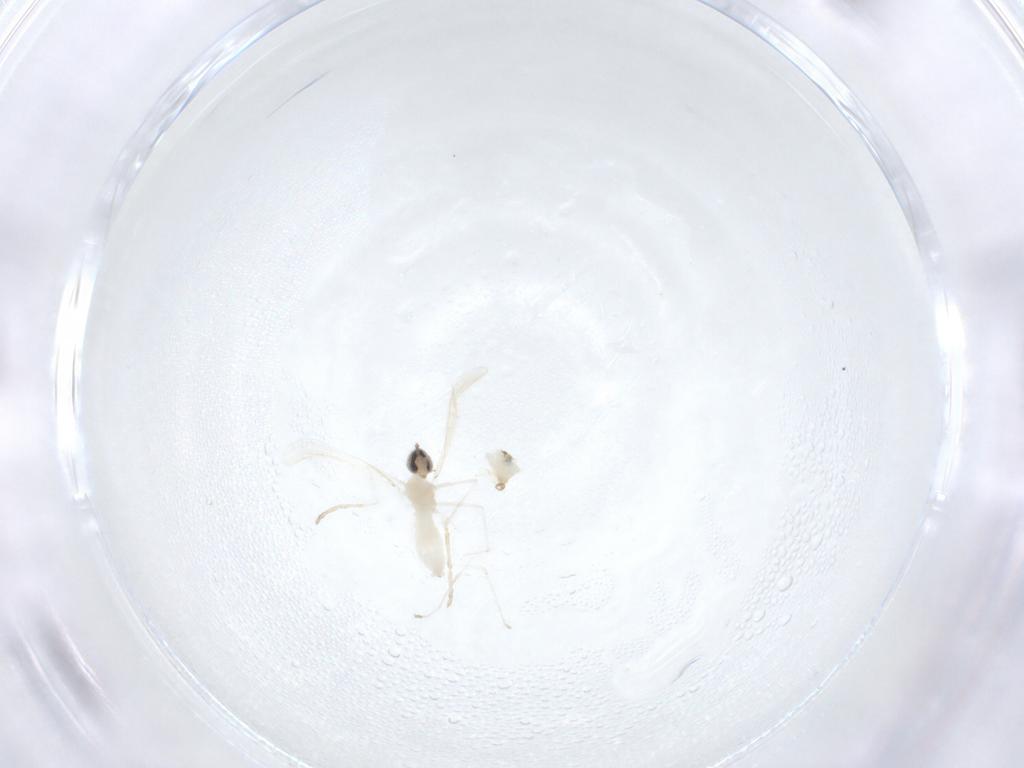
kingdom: Animalia
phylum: Arthropoda
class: Insecta
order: Diptera
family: Cecidomyiidae
